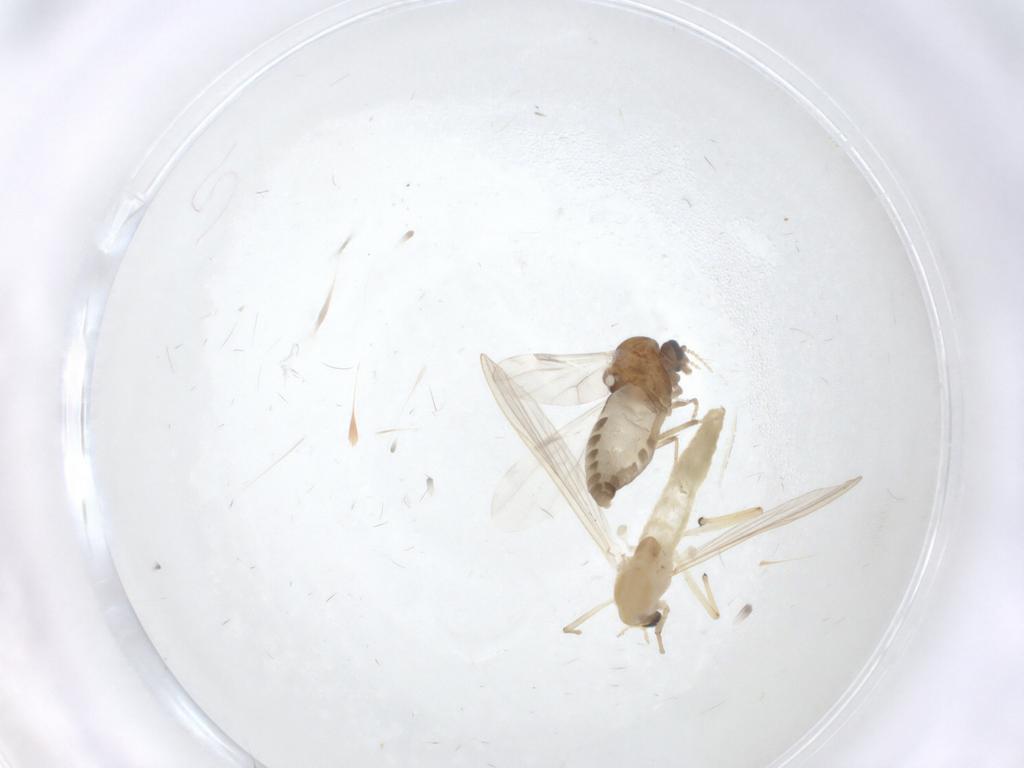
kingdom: Animalia
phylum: Arthropoda
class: Insecta
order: Diptera
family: Ceratopogonidae
